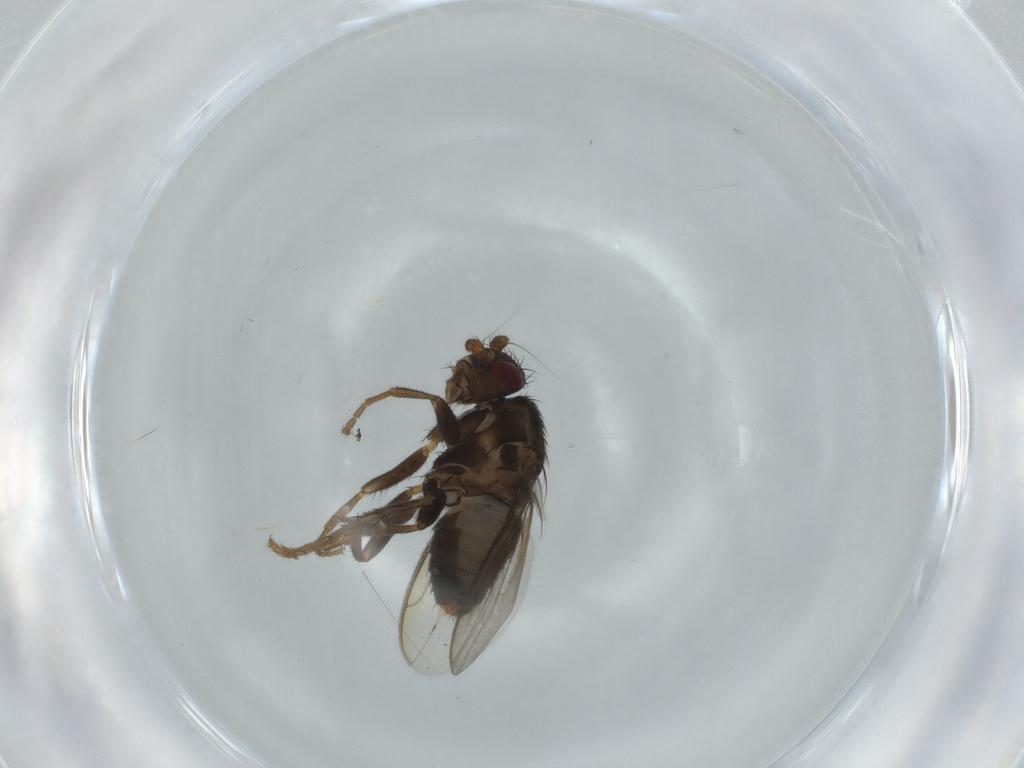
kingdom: Animalia
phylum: Arthropoda
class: Insecta
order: Diptera
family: Sphaeroceridae
